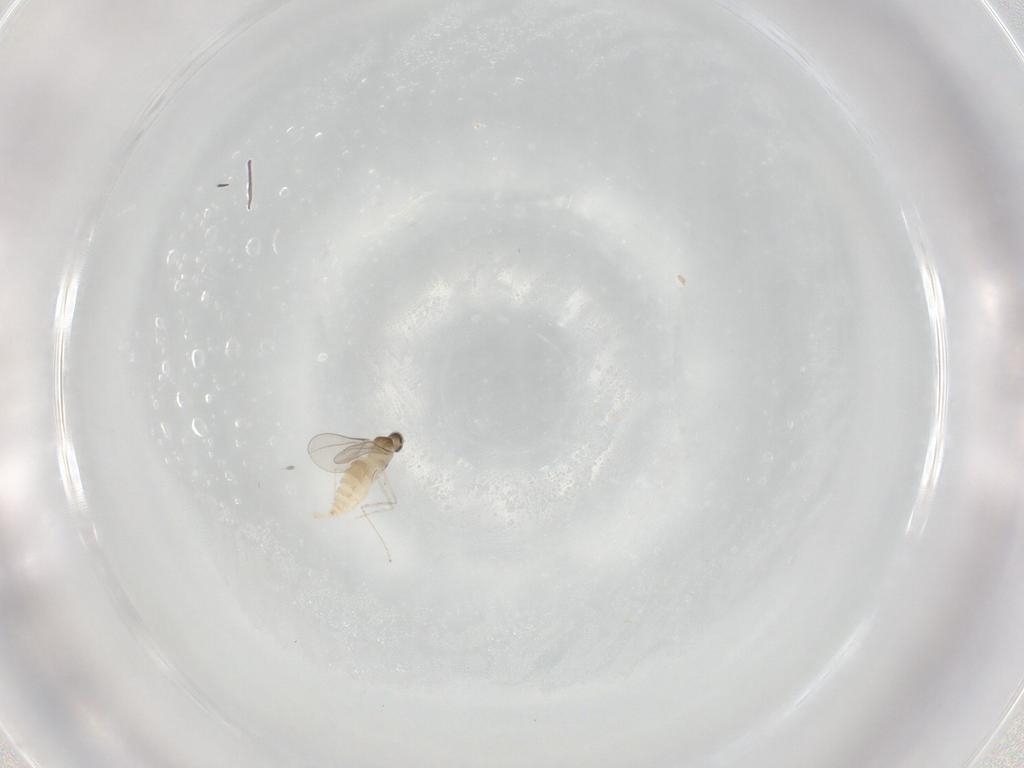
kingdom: Animalia
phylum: Arthropoda
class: Insecta
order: Diptera
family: Cecidomyiidae
